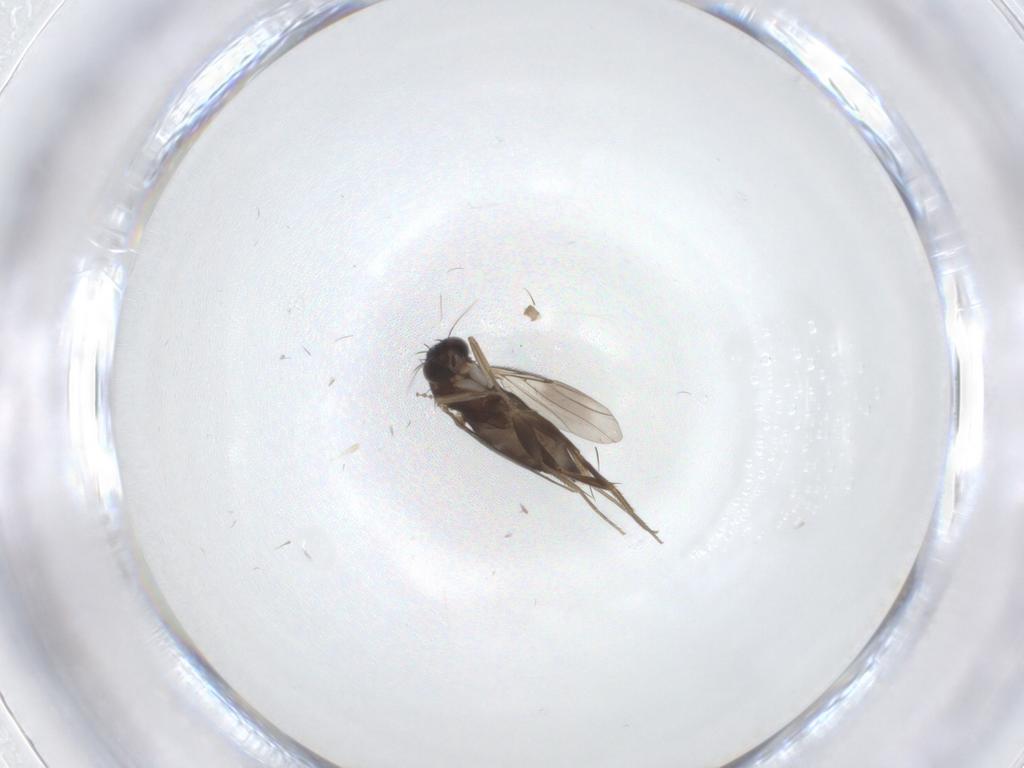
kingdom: Animalia
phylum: Arthropoda
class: Insecta
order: Diptera
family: Cecidomyiidae
